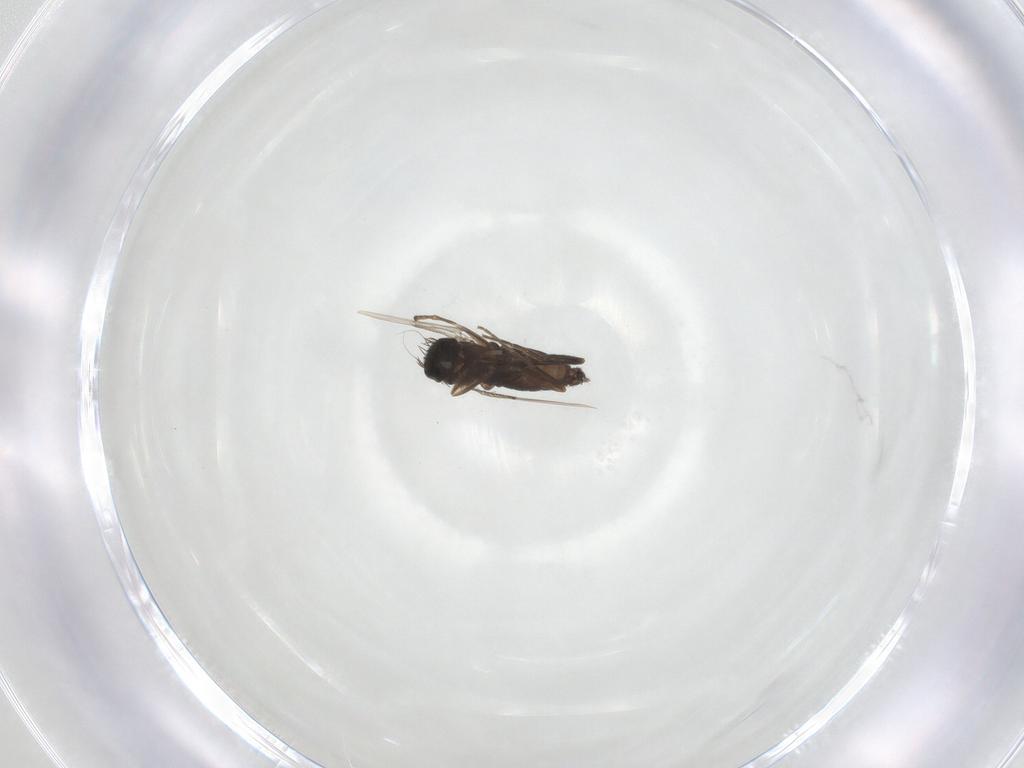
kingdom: Animalia
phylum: Arthropoda
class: Insecta
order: Diptera
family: Phoridae
